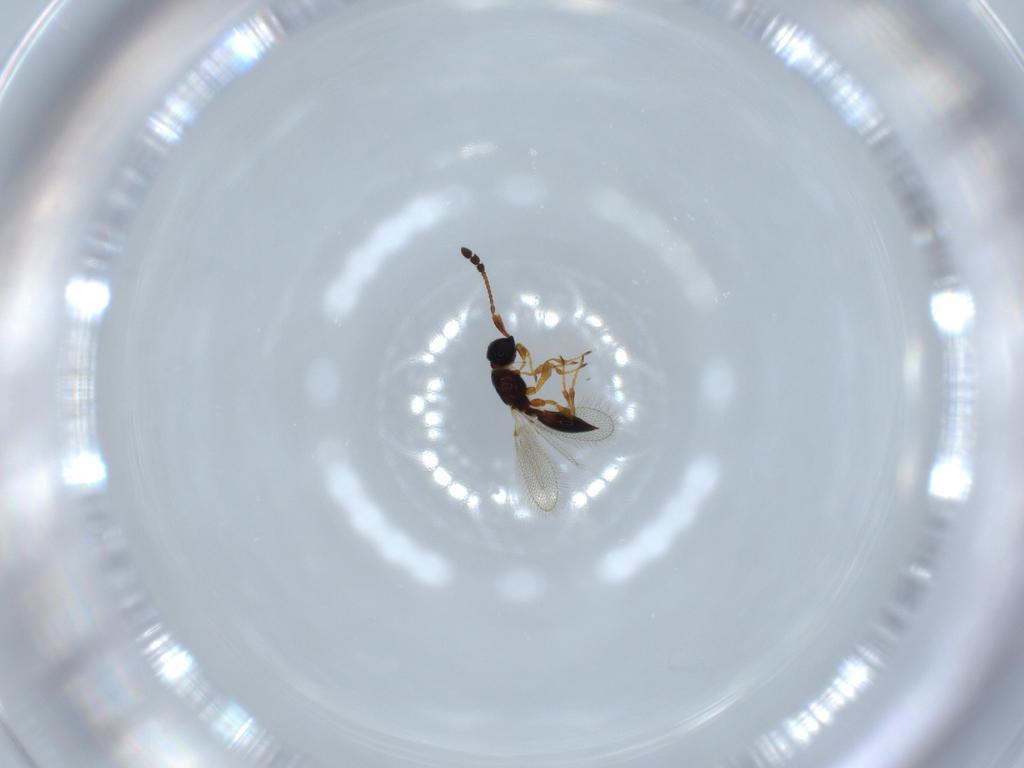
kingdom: Animalia
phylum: Arthropoda
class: Insecta
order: Hymenoptera
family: Diapriidae
